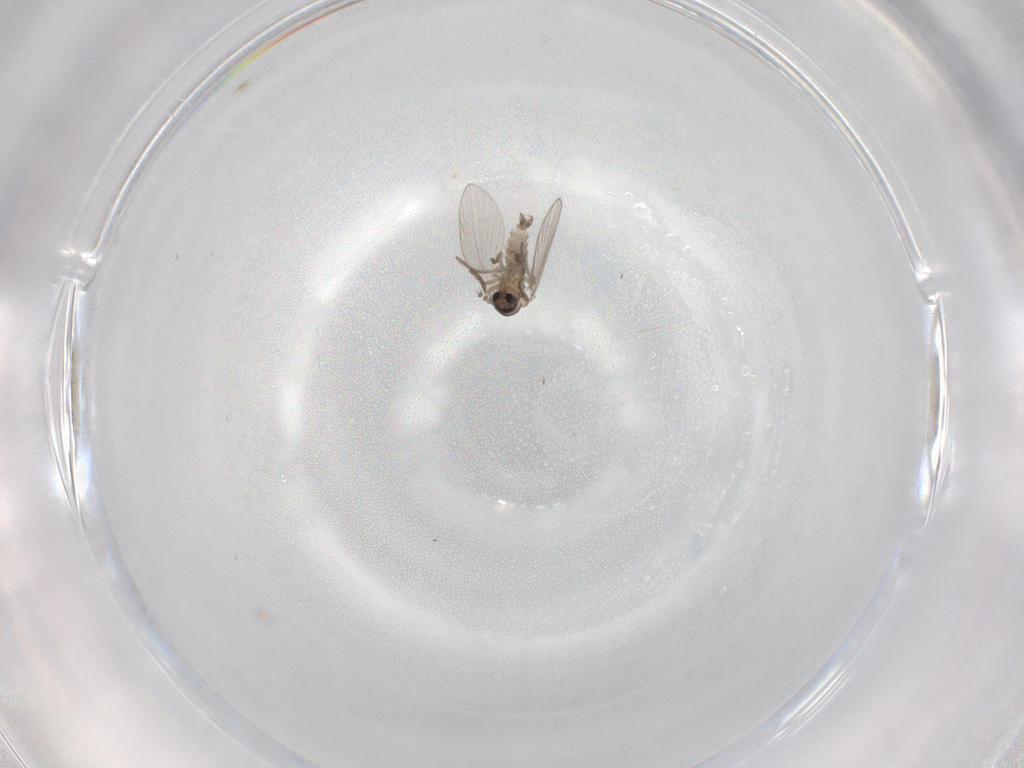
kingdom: Animalia
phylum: Arthropoda
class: Insecta
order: Diptera
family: Psychodidae
